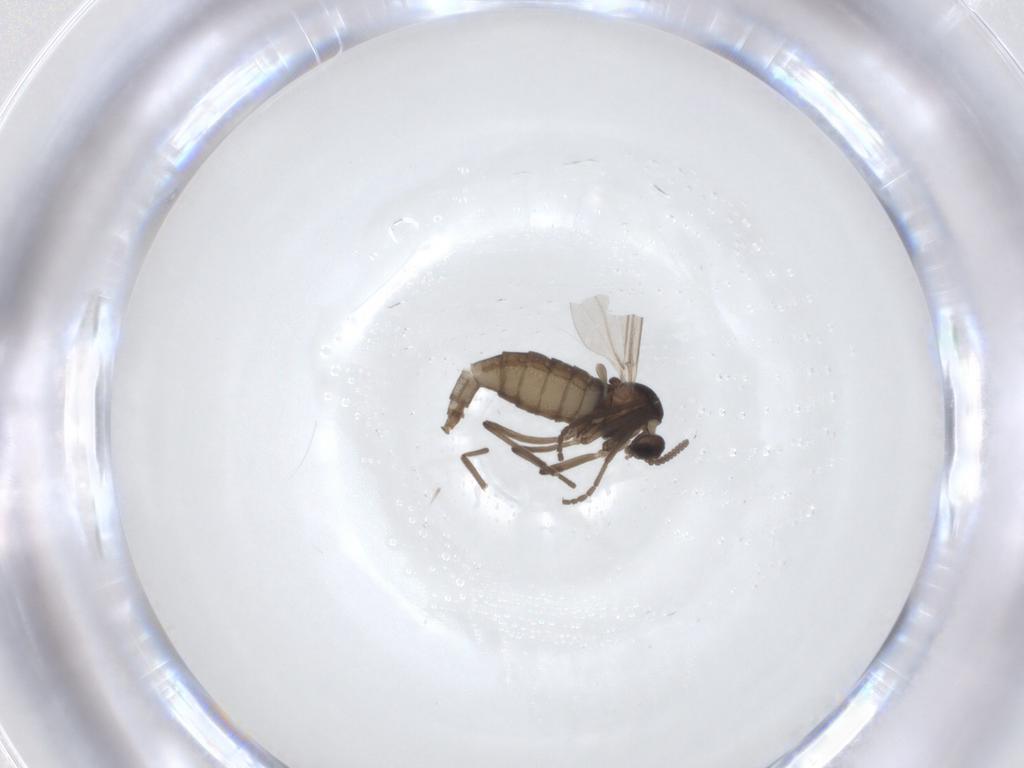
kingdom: Animalia
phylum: Arthropoda
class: Insecta
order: Diptera
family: Cecidomyiidae
